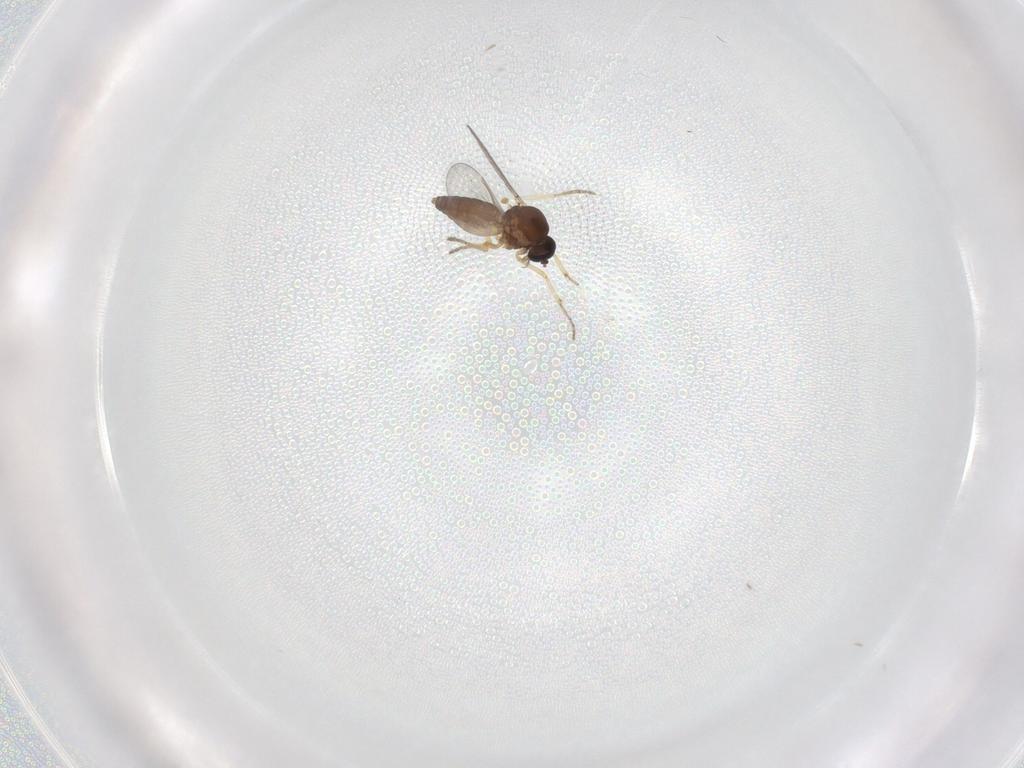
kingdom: Animalia
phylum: Arthropoda
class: Insecta
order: Diptera
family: Ceratopogonidae
